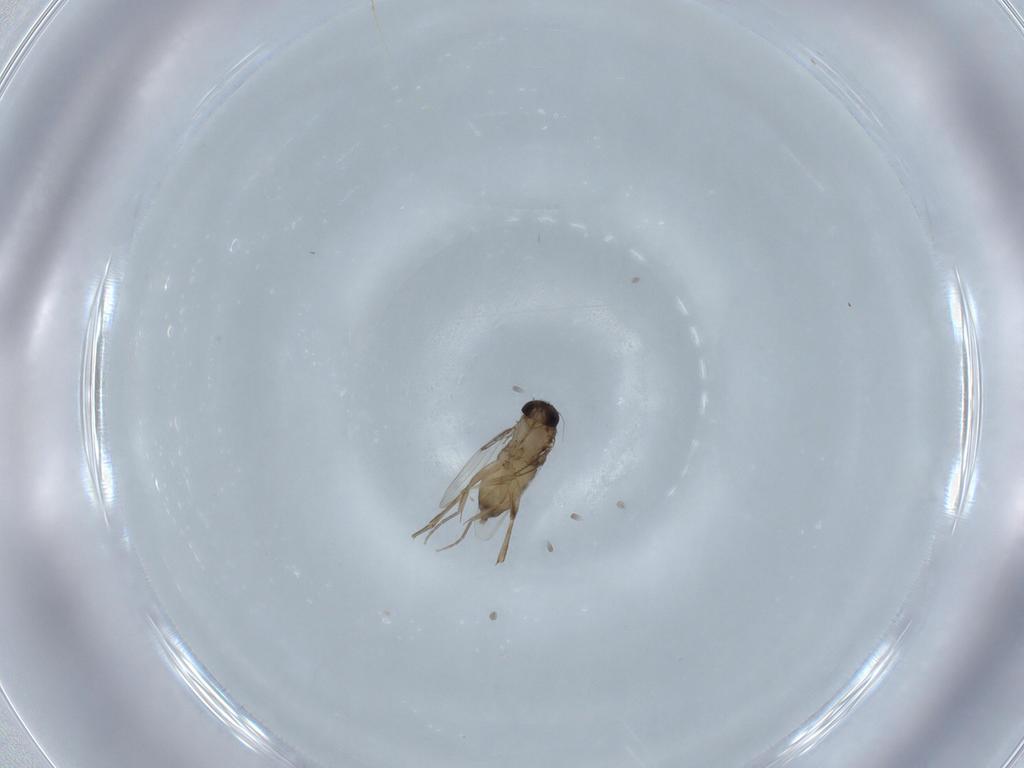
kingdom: Animalia
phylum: Arthropoda
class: Insecta
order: Diptera
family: Phoridae
